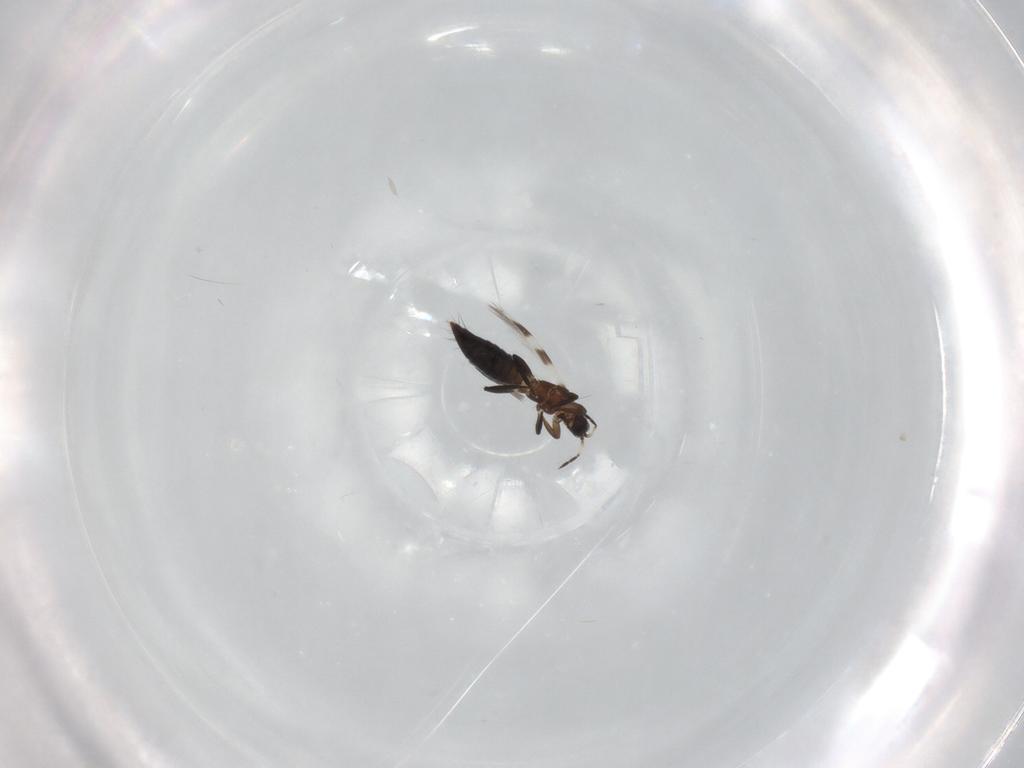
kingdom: Animalia
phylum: Arthropoda
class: Insecta
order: Thysanoptera
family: Aeolothripidae
